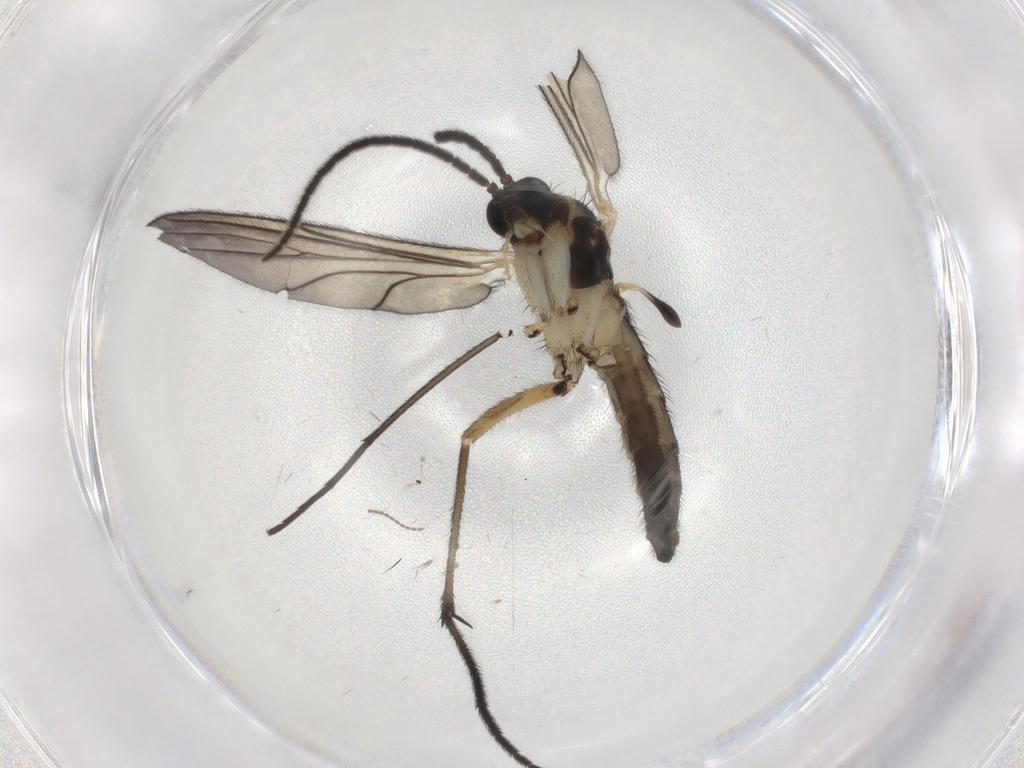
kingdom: Animalia
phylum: Arthropoda
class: Insecta
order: Diptera
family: Sciaridae
